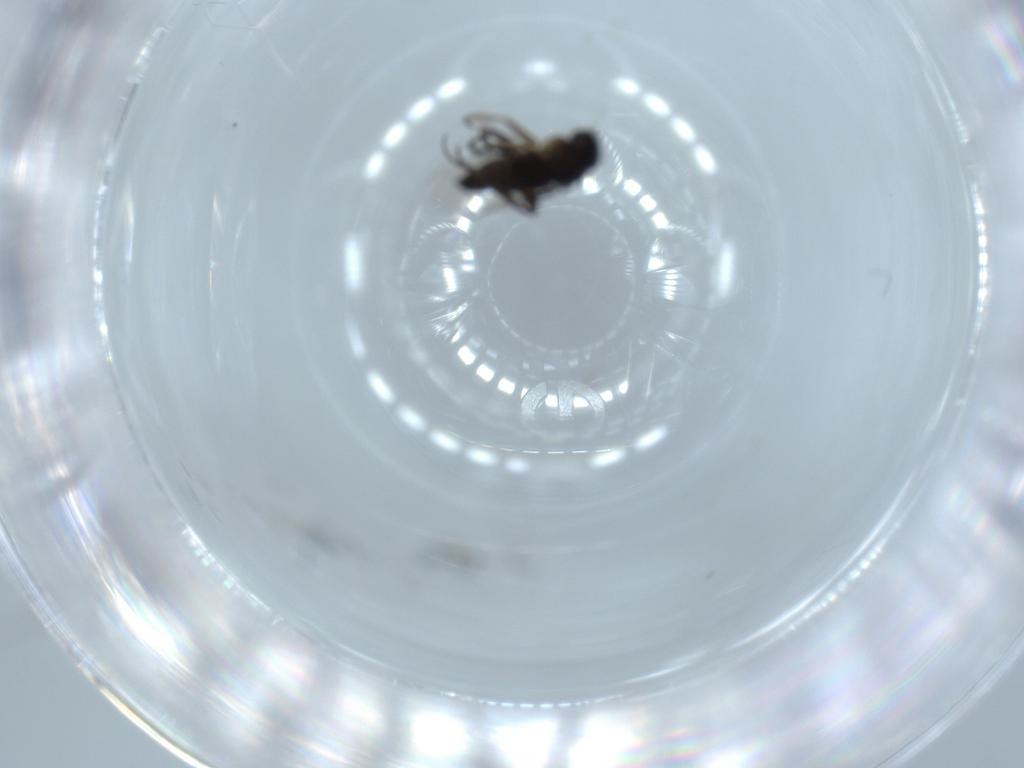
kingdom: Animalia
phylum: Arthropoda
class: Insecta
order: Diptera
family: Phoridae
